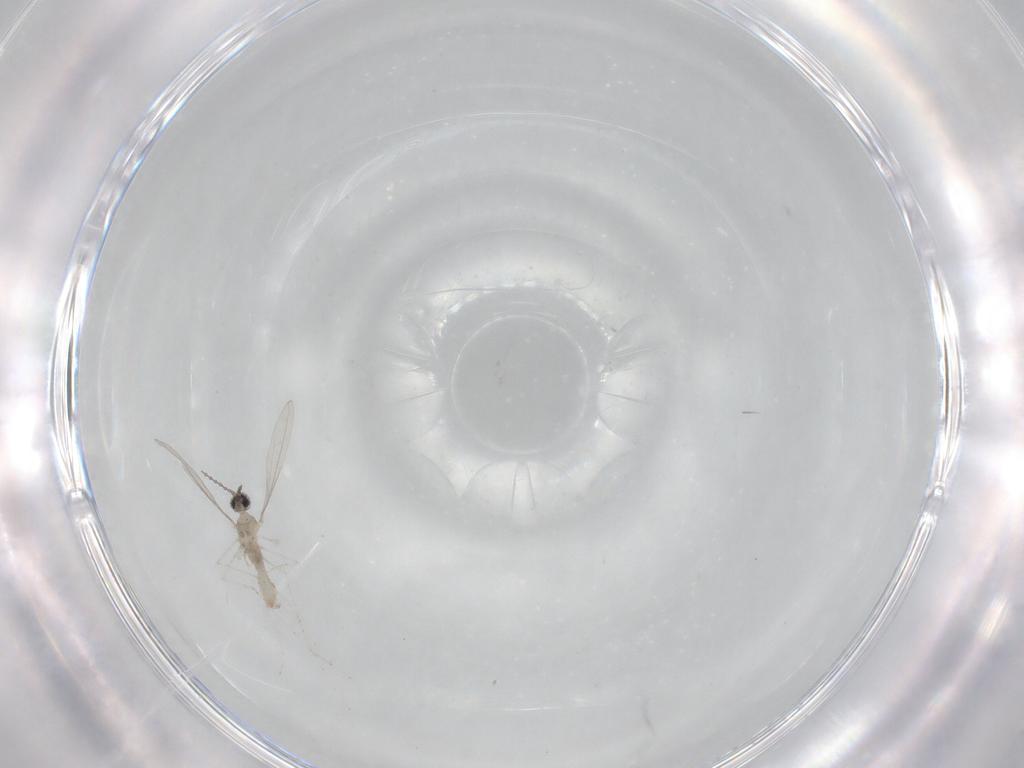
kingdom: Animalia
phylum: Arthropoda
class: Insecta
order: Diptera
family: Cecidomyiidae
